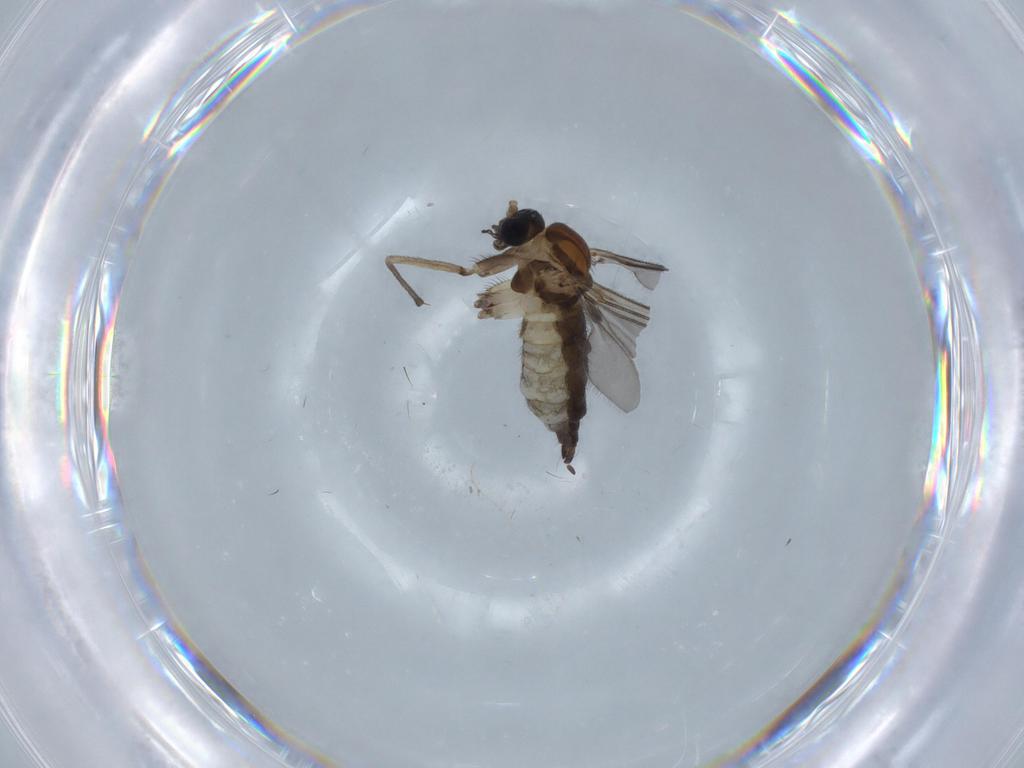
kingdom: Animalia
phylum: Arthropoda
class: Insecta
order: Diptera
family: Sciaridae
